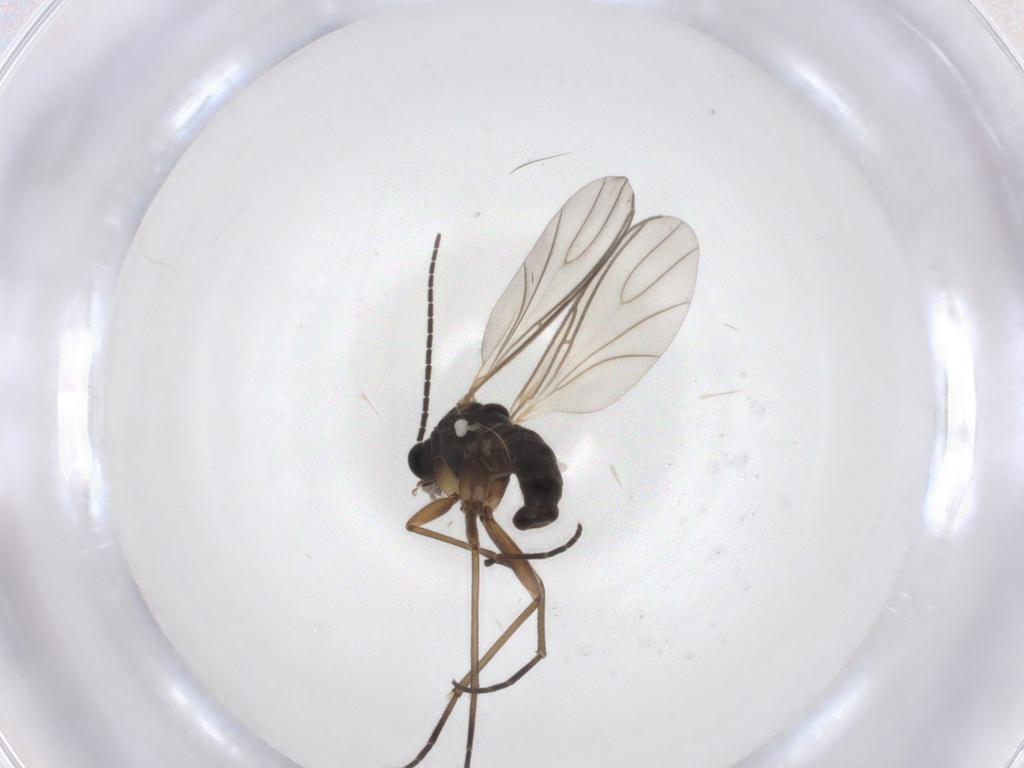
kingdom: Animalia
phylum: Arthropoda
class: Insecta
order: Diptera
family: Sciaridae
